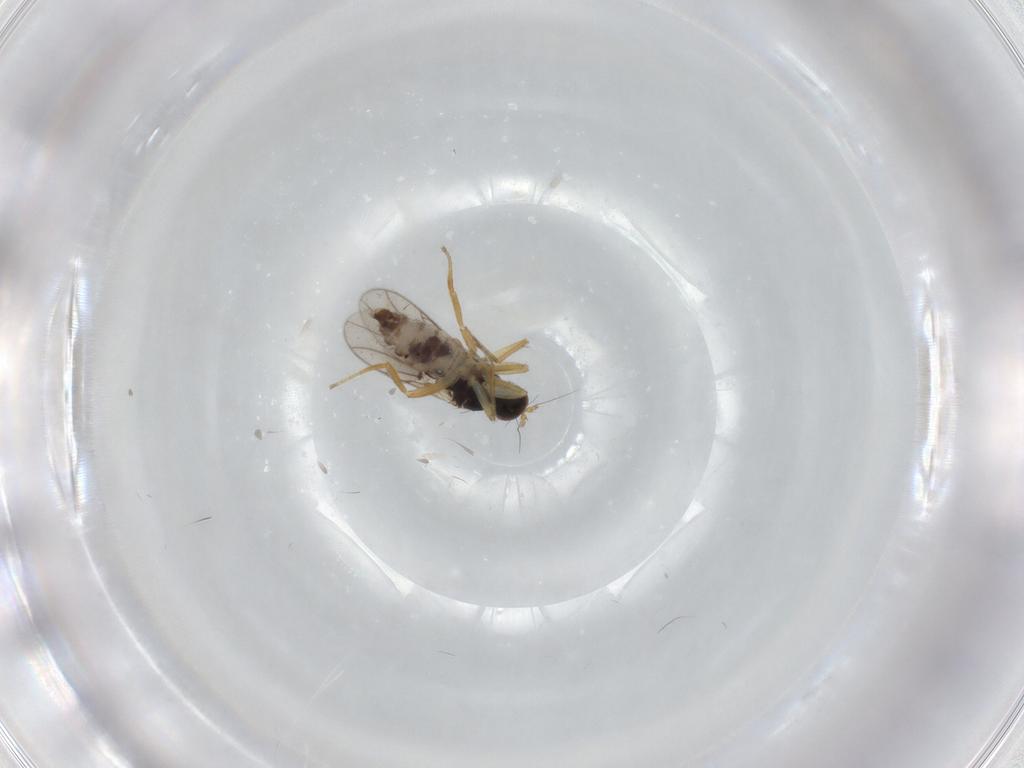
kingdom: Animalia
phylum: Arthropoda
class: Insecta
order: Diptera
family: Hybotidae
